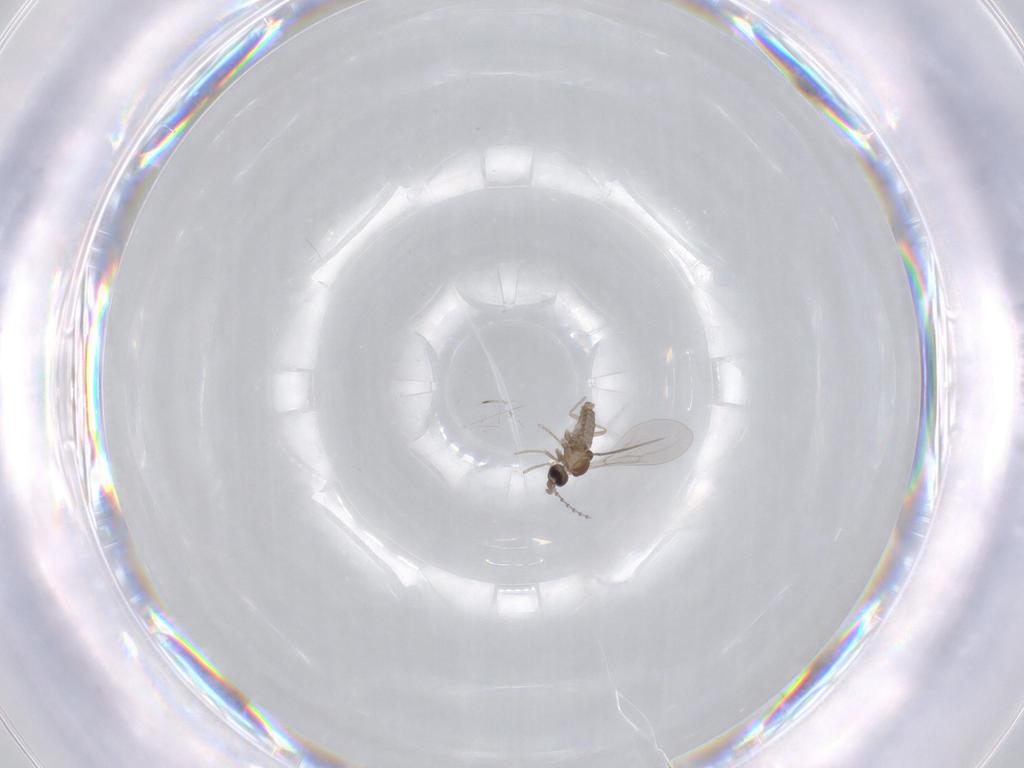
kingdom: Animalia
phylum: Arthropoda
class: Insecta
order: Diptera
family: Cecidomyiidae
